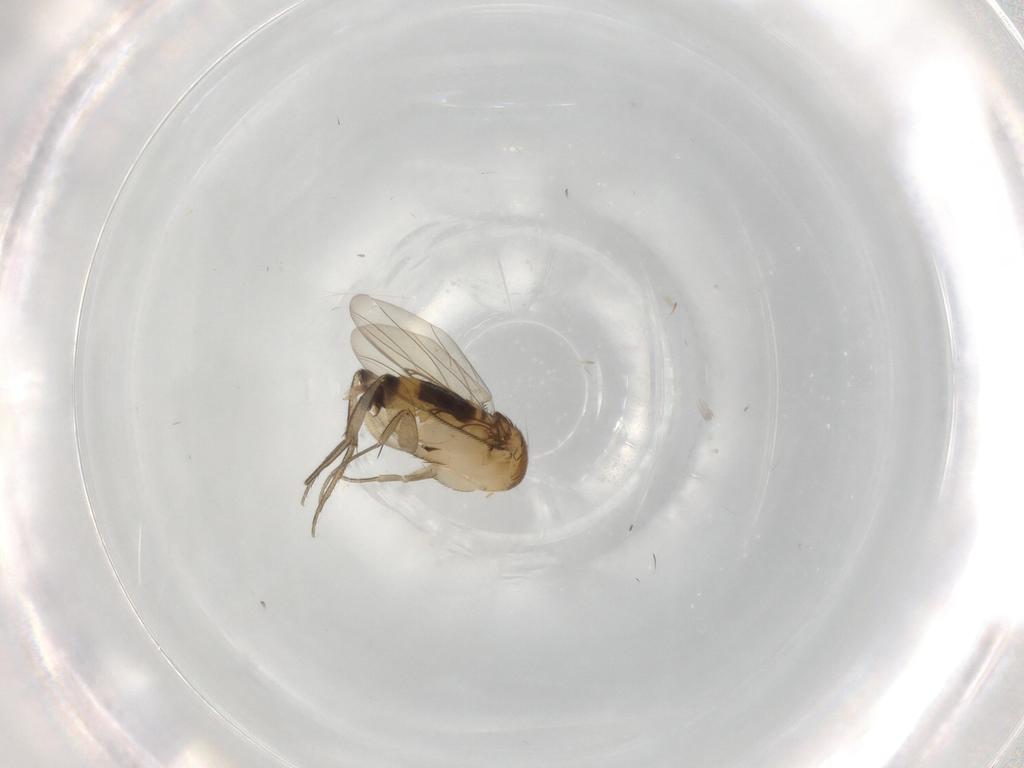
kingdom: Animalia
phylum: Arthropoda
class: Insecta
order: Diptera
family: Phoridae
